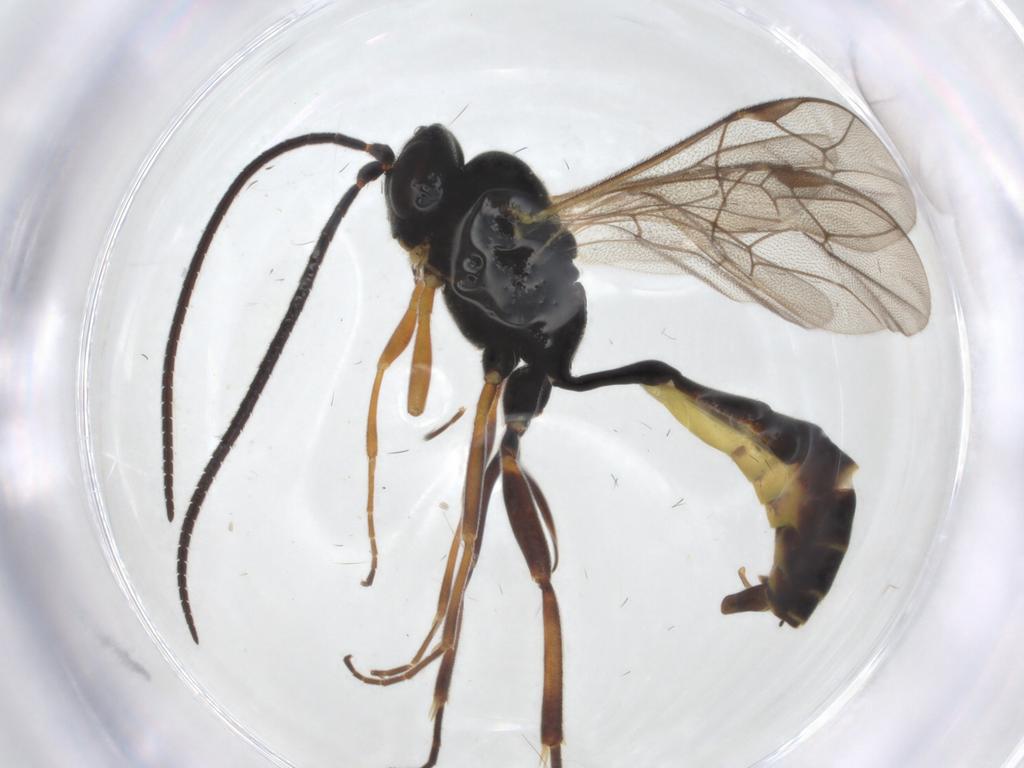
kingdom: Animalia
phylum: Arthropoda
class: Insecta
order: Hymenoptera
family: Ichneumonidae
